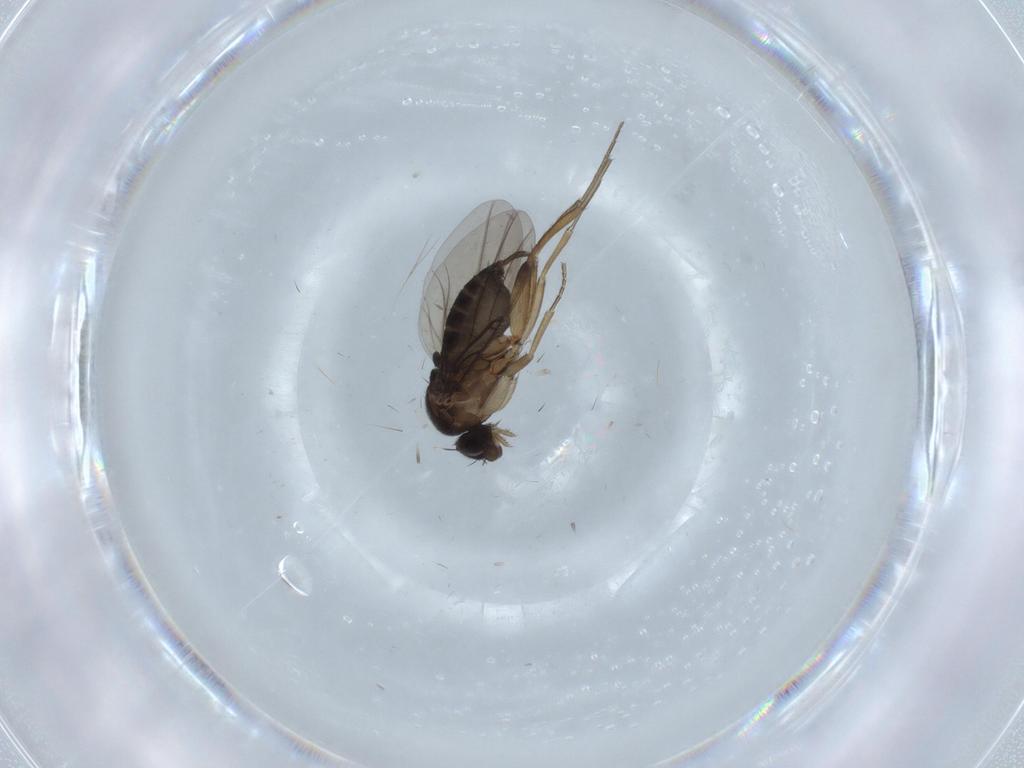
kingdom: Animalia
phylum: Arthropoda
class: Insecta
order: Diptera
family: Phoridae
